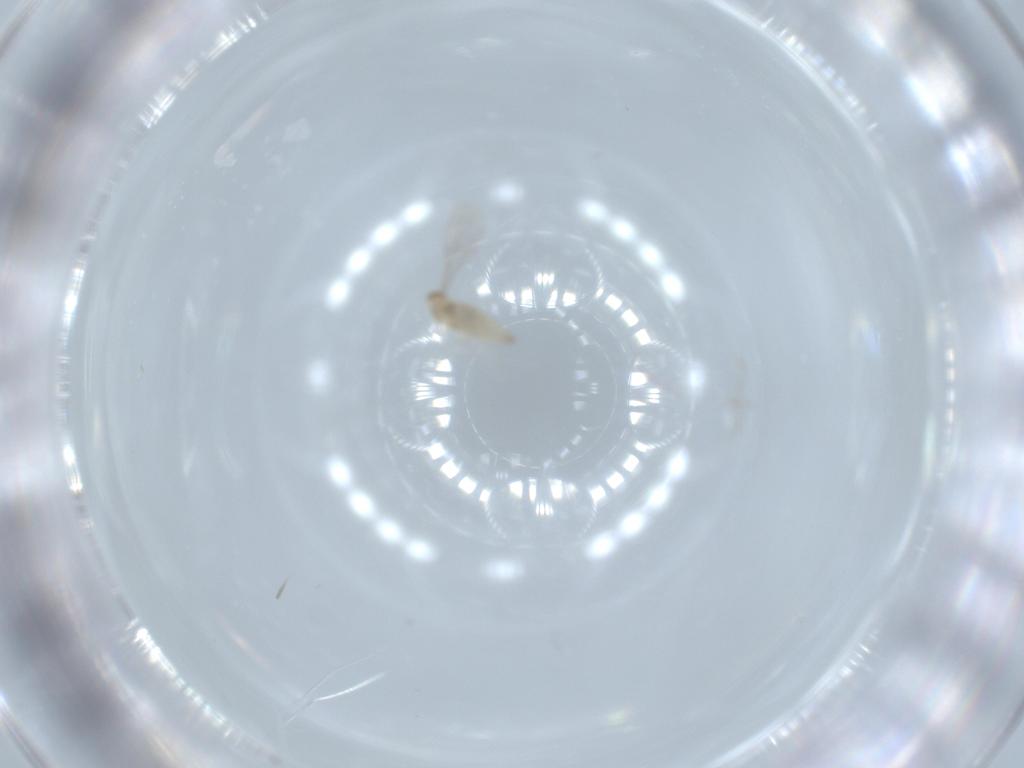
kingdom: Animalia
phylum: Arthropoda
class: Insecta
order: Diptera
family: Cecidomyiidae
